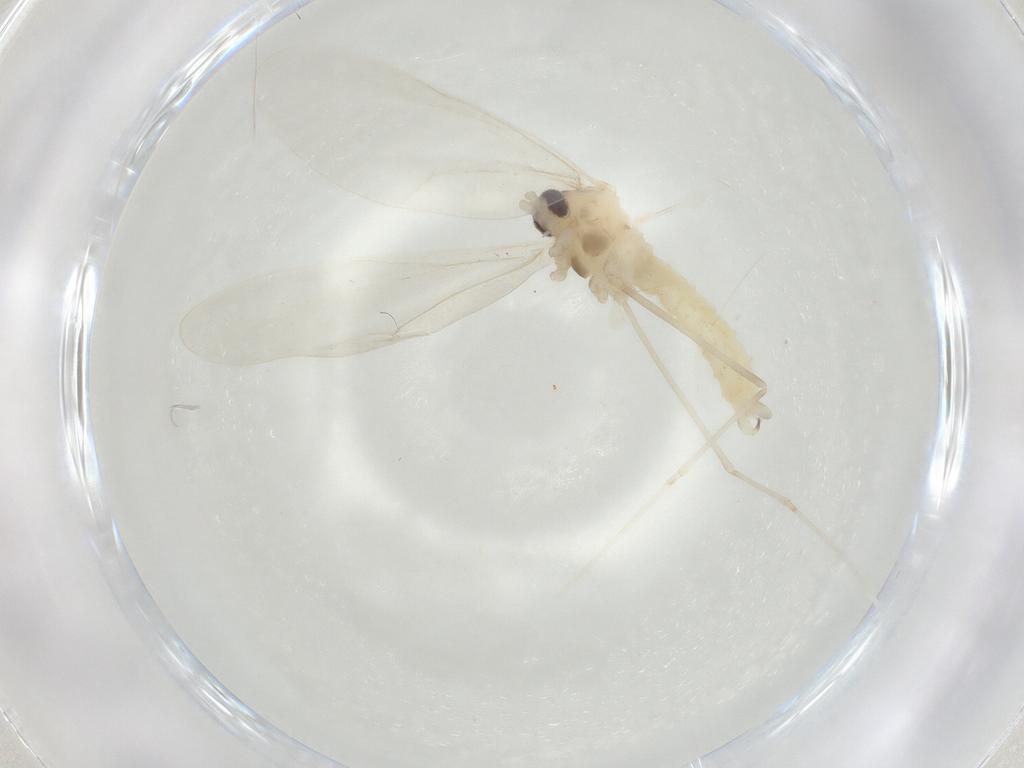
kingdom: Animalia
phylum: Arthropoda
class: Insecta
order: Diptera
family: Cecidomyiidae
